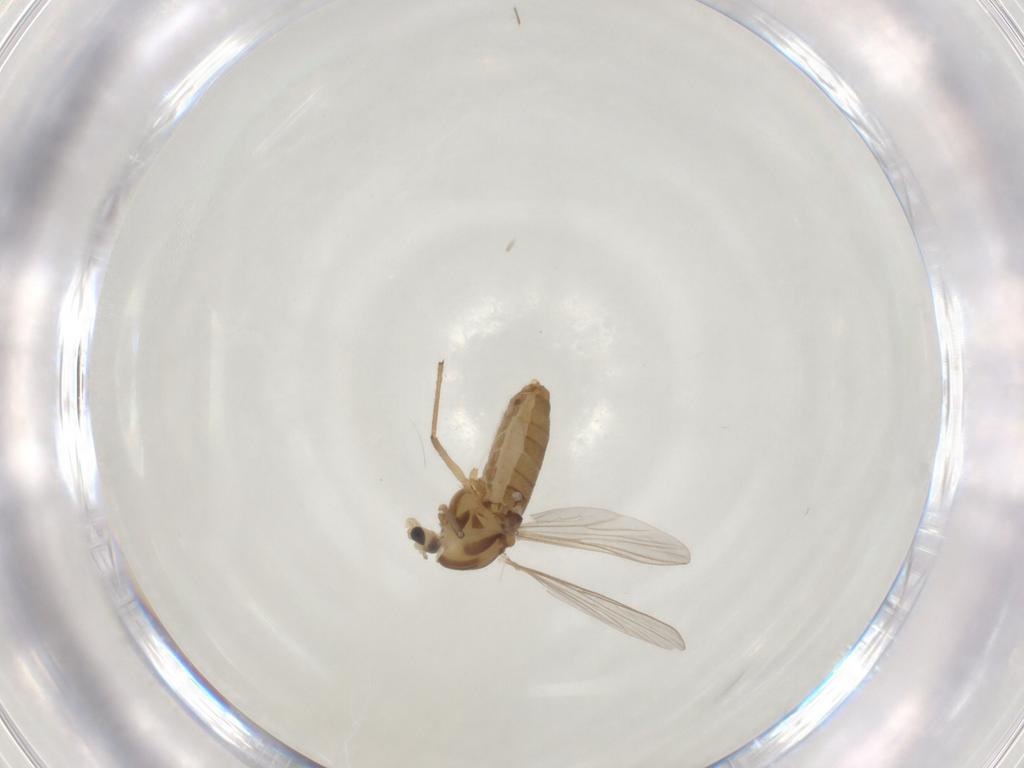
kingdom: Animalia
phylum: Arthropoda
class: Insecta
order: Diptera
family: Chironomidae
